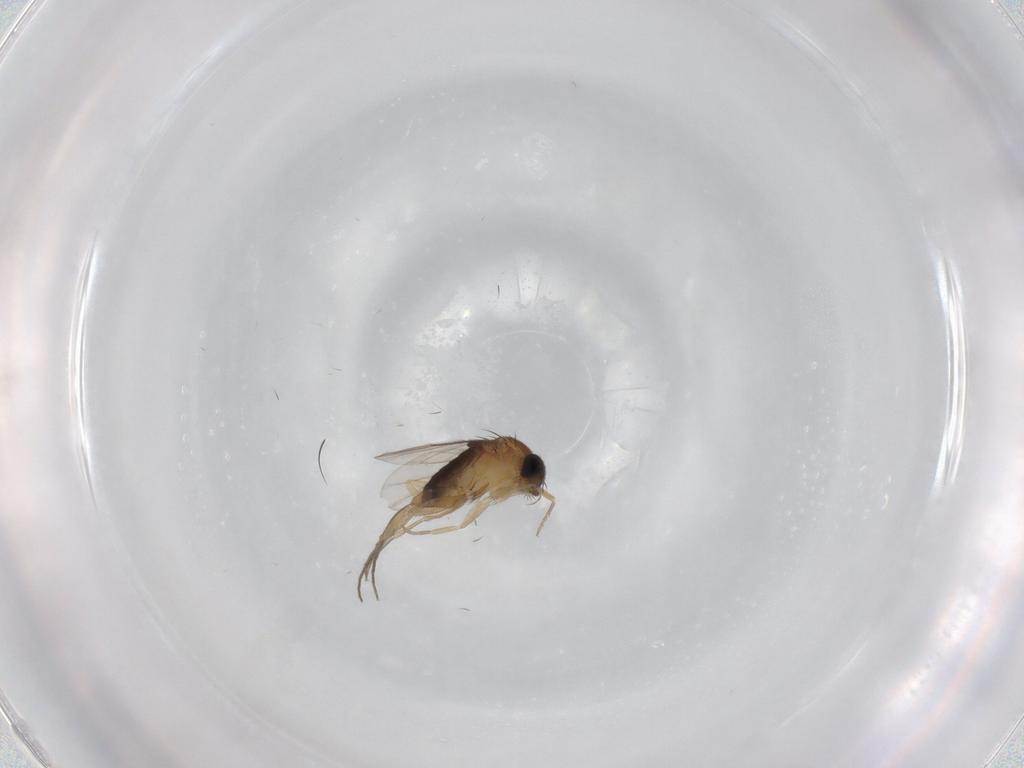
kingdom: Animalia
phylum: Arthropoda
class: Insecta
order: Diptera
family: Ceratopogonidae
